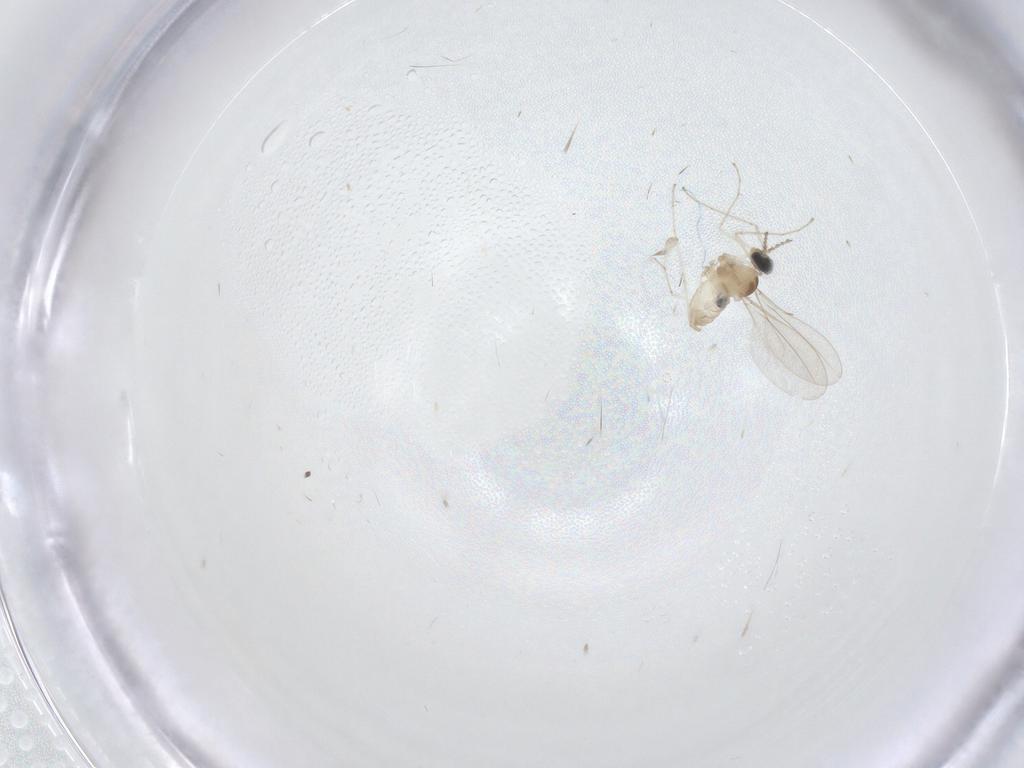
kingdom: Animalia
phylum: Arthropoda
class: Insecta
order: Diptera
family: Cecidomyiidae
